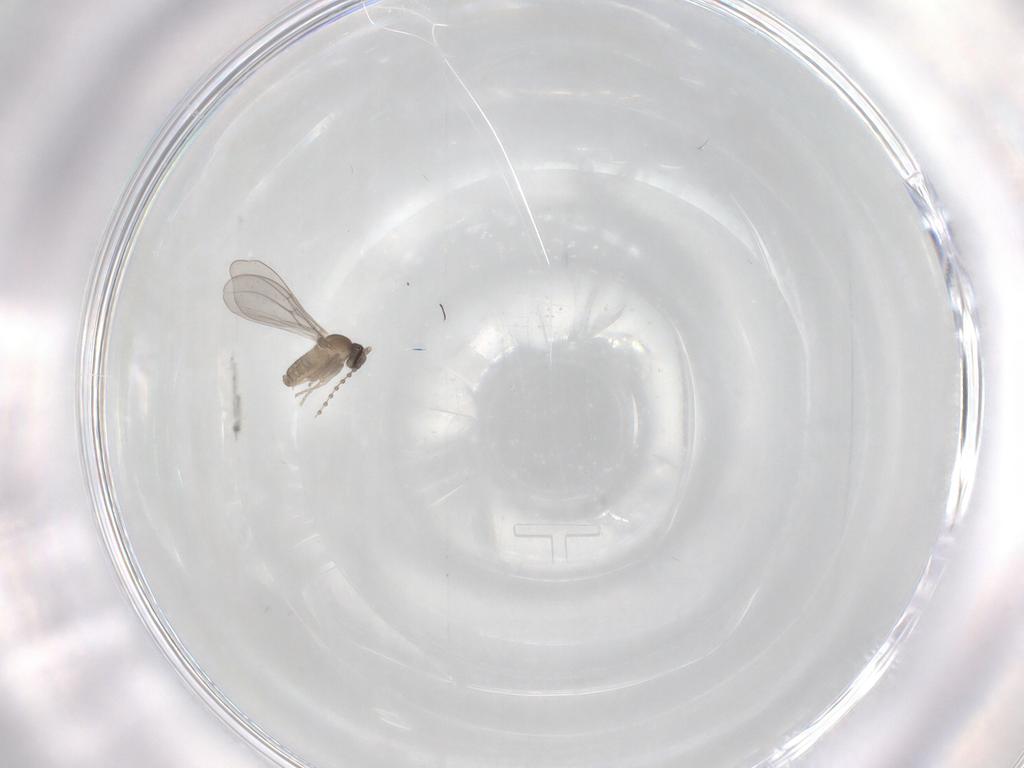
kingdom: Animalia
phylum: Arthropoda
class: Insecta
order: Diptera
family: Cecidomyiidae
